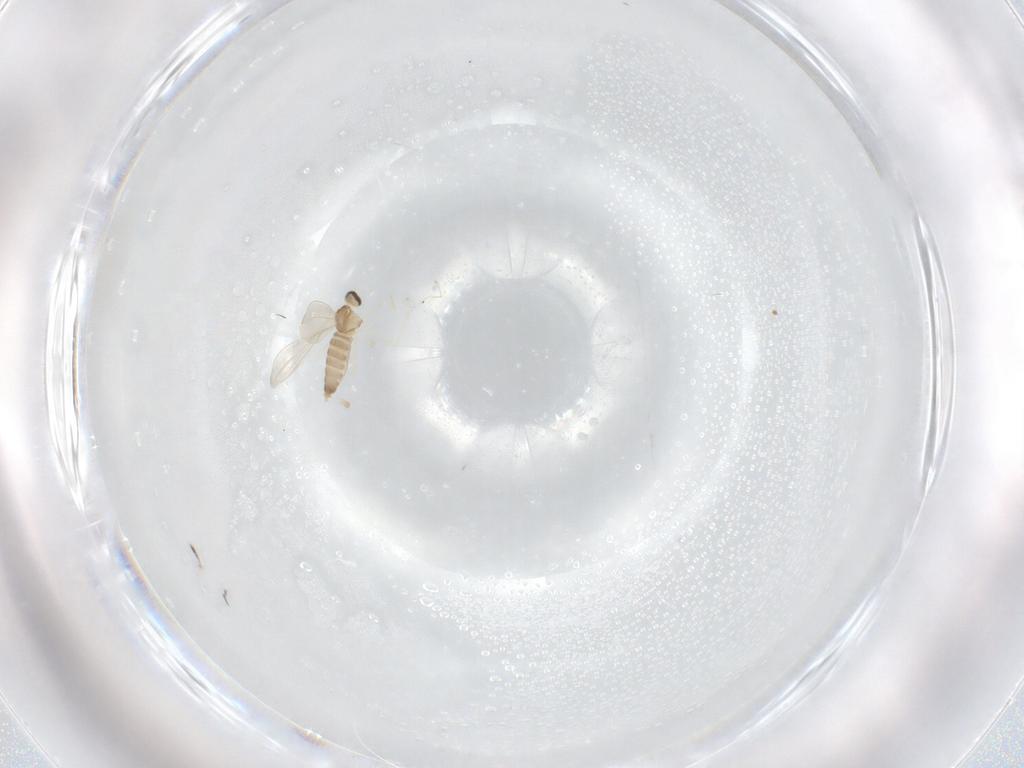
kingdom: Animalia
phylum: Arthropoda
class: Insecta
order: Diptera
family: Cecidomyiidae
